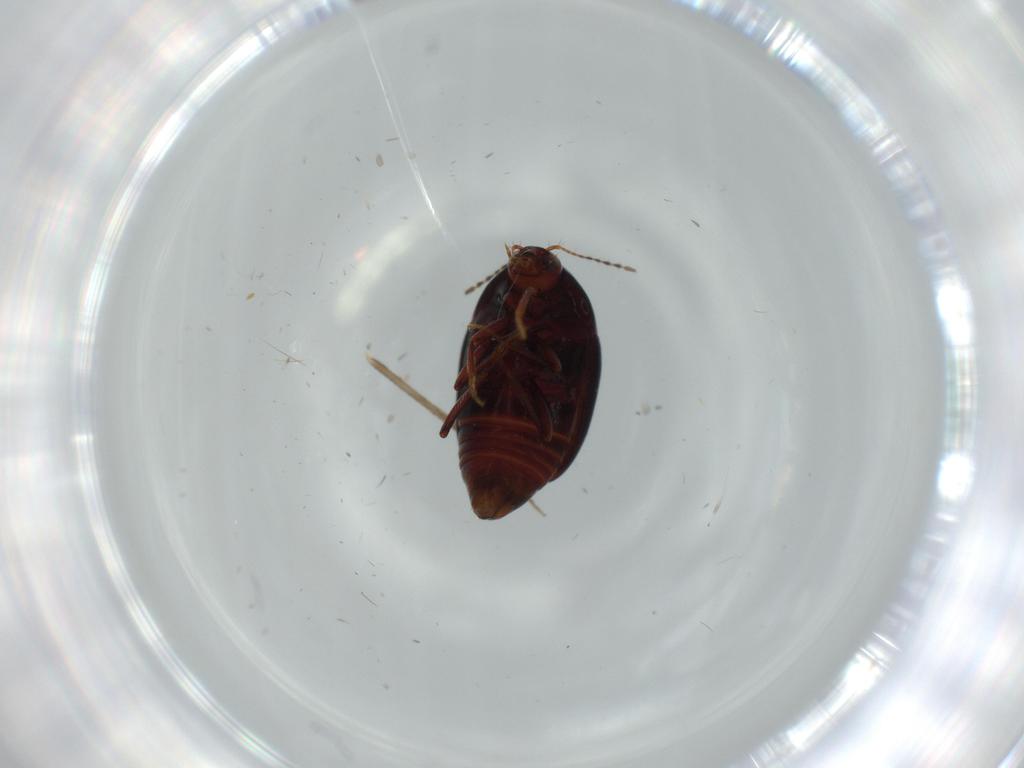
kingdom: Animalia
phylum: Arthropoda
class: Insecta
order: Coleoptera
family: Staphylinidae
